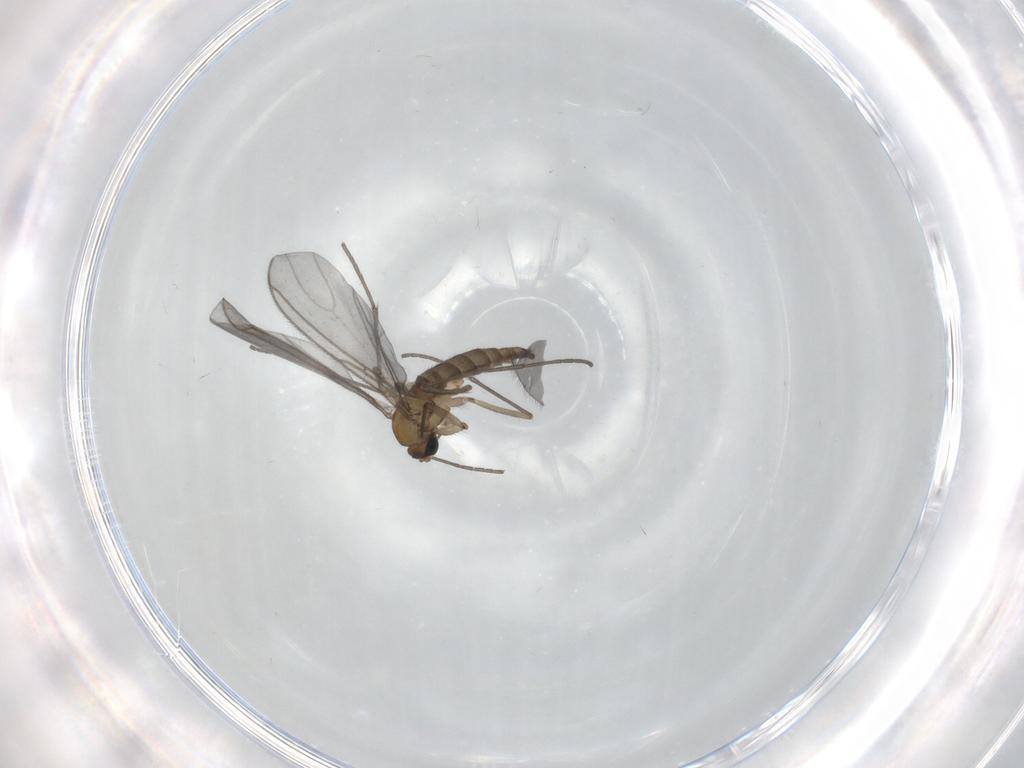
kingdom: Animalia
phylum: Arthropoda
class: Insecta
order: Diptera
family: Sciaridae
